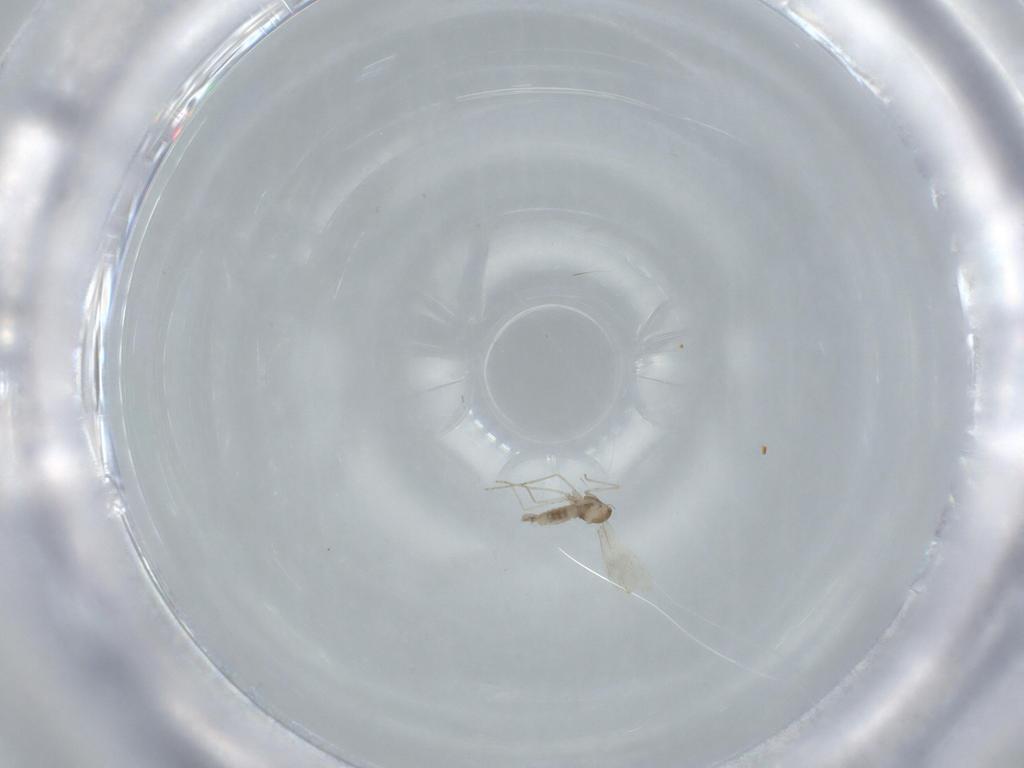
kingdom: Animalia
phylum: Arthropoda
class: Insecta
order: Diptera
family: Cecidomyiidae
